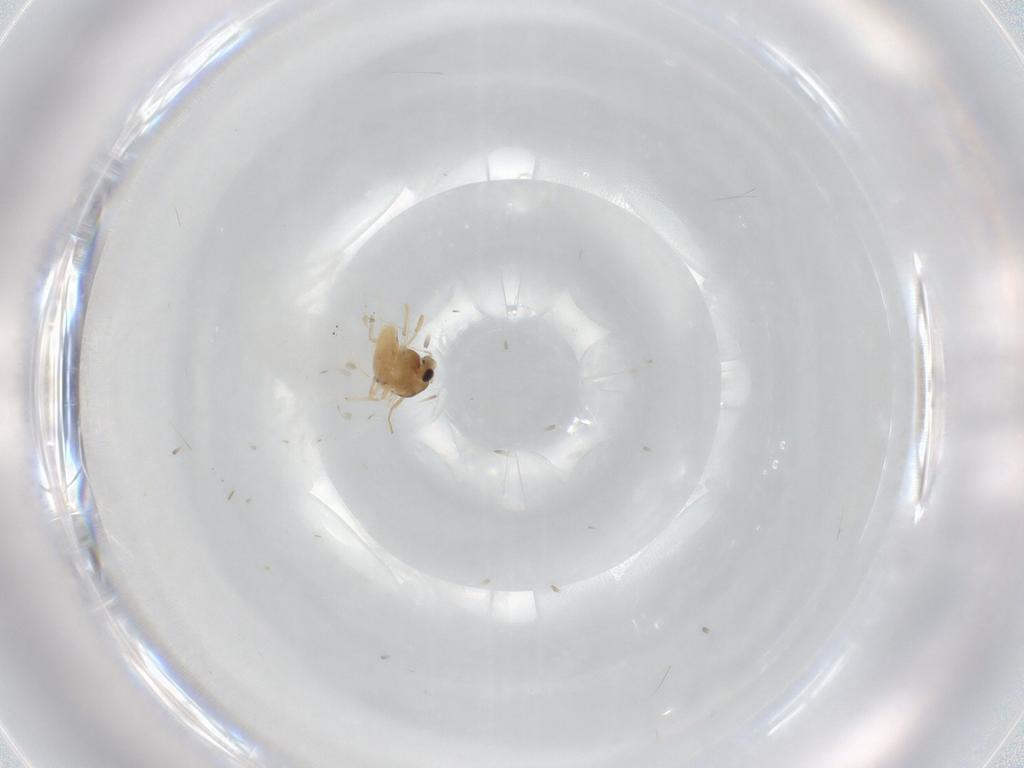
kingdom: Animalia
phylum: Arthropoda
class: Insecta
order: Diptera
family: Chironomidae
